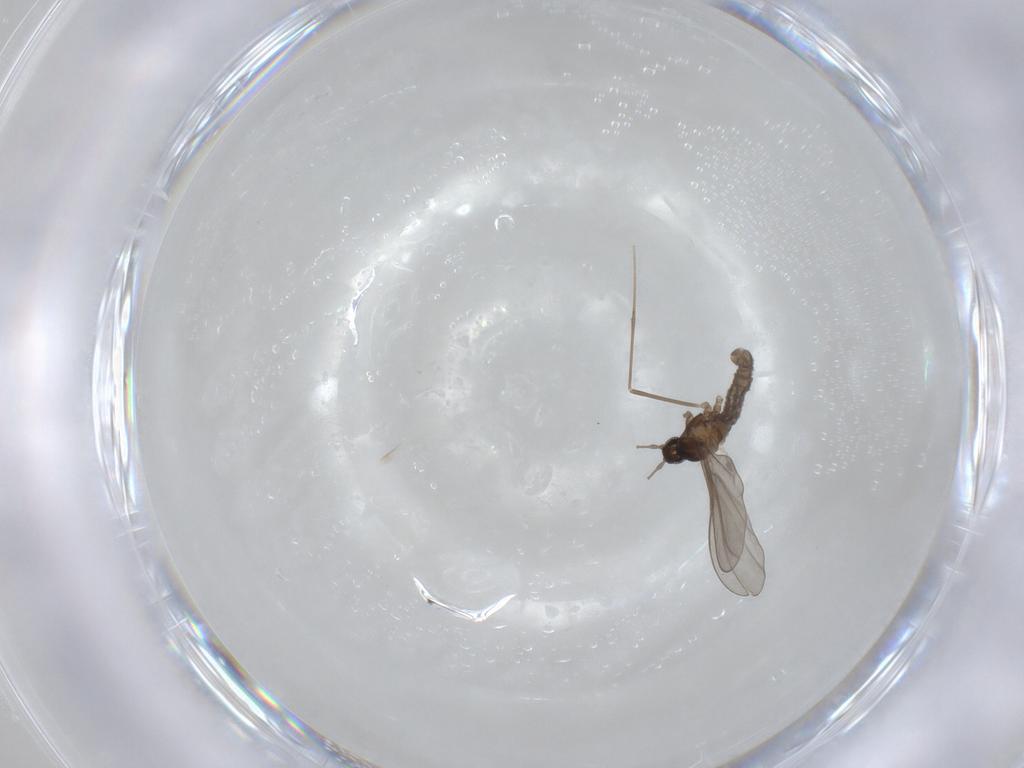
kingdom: Animalia
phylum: Arthropoda
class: Insecta
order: Diptera
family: Cecidomyiidae
